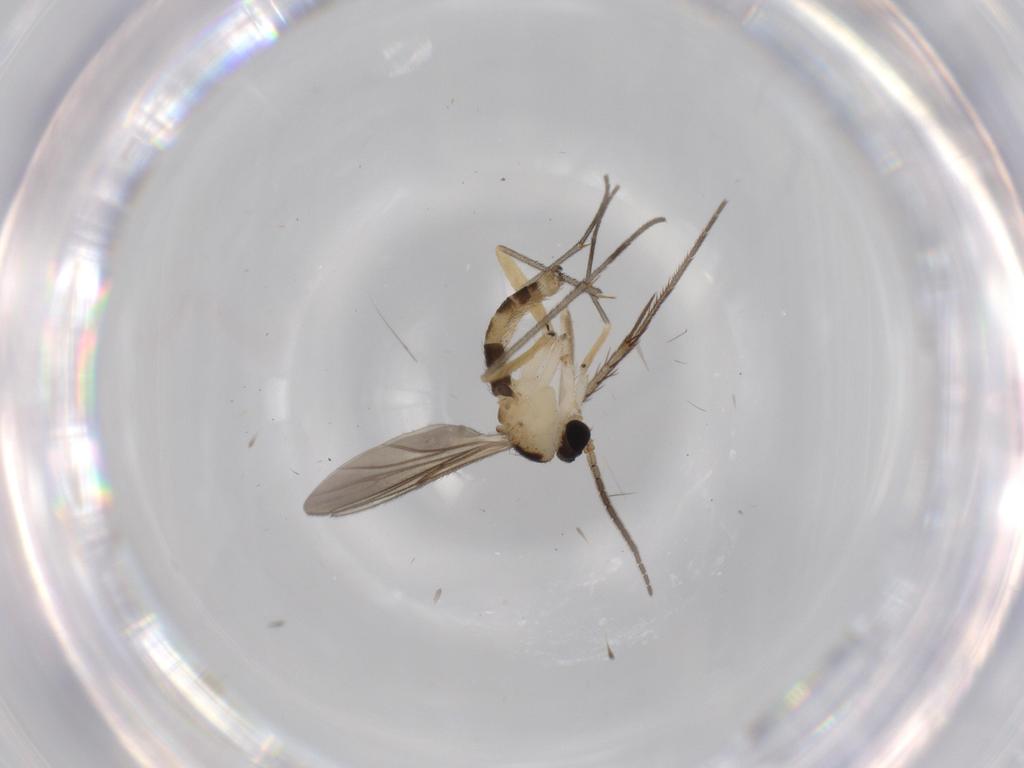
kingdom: Animalia
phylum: Arthropoda
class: Insecta
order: Diptera
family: Sciaridae
